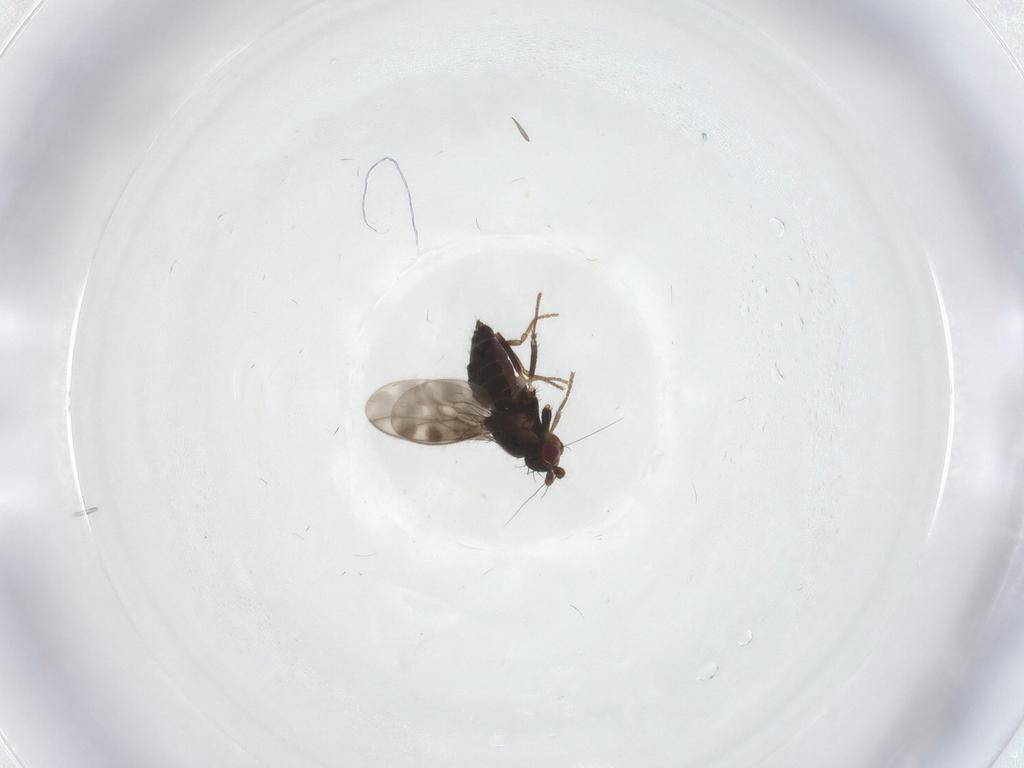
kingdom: Animalia
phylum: Arthropoda
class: Insecta
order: Diptera
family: Sphaeroceridae
